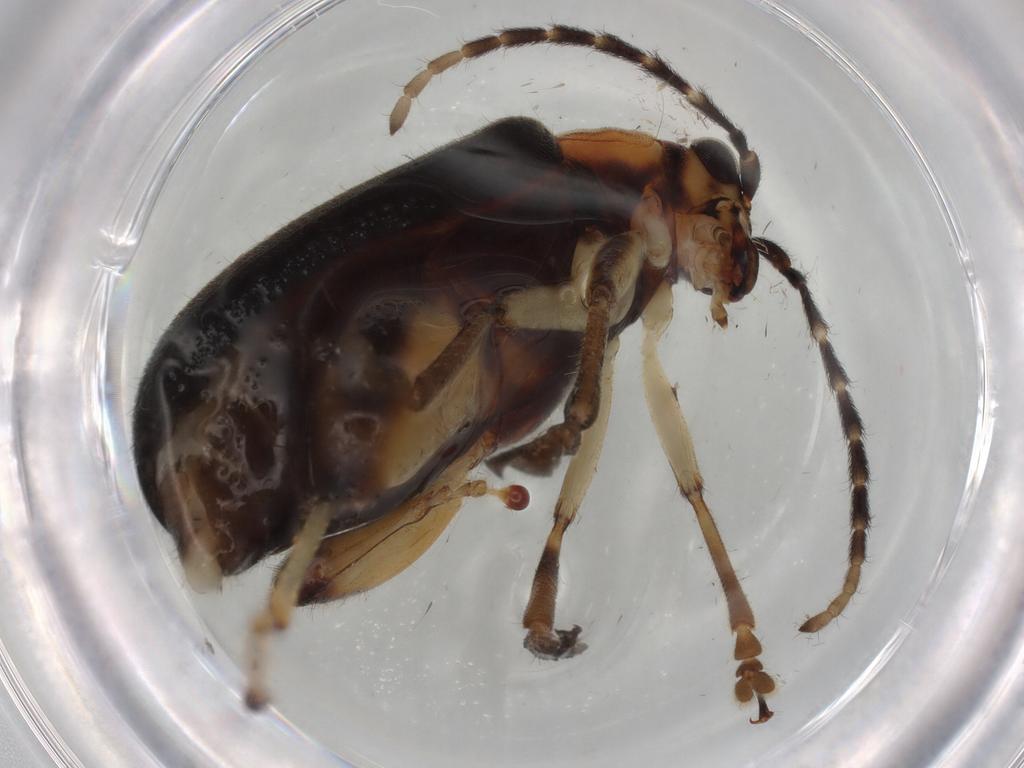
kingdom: Animalia
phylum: Arthropoda
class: Insecta
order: Coleoptera
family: Chrysomelidae
